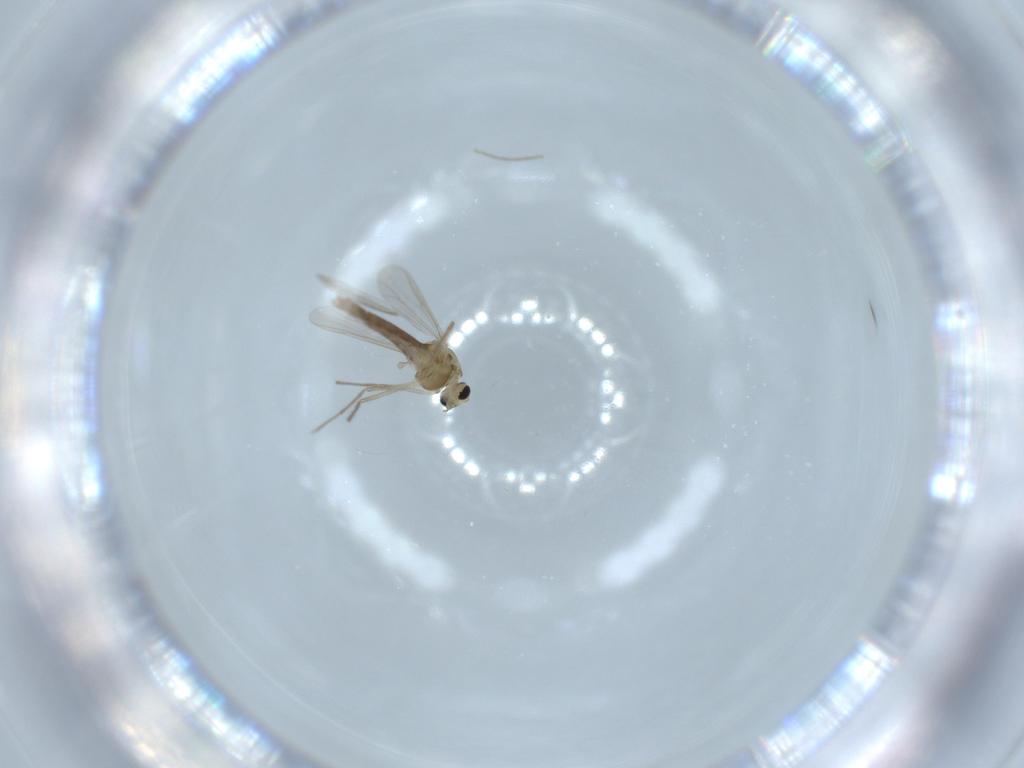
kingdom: Animalia
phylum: Arthropoda
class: Insecta
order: Diptera
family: Chironomidae
